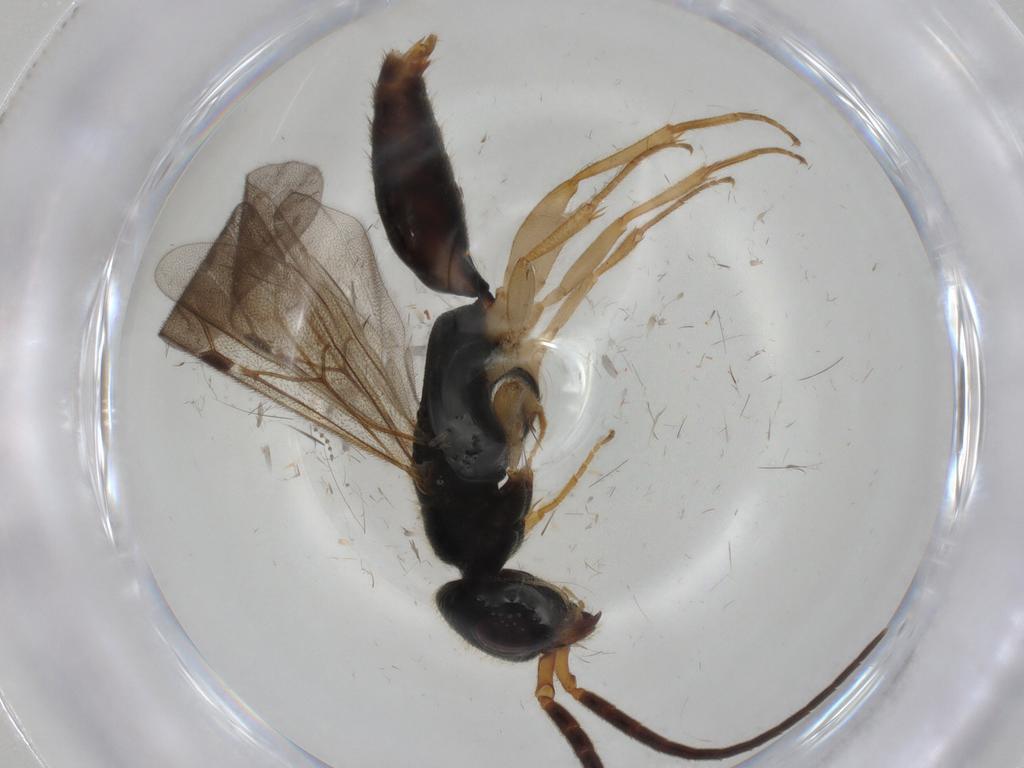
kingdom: Animalia
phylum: Arthropoda
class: Insecta
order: Hymenoptera
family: Bethylidae
